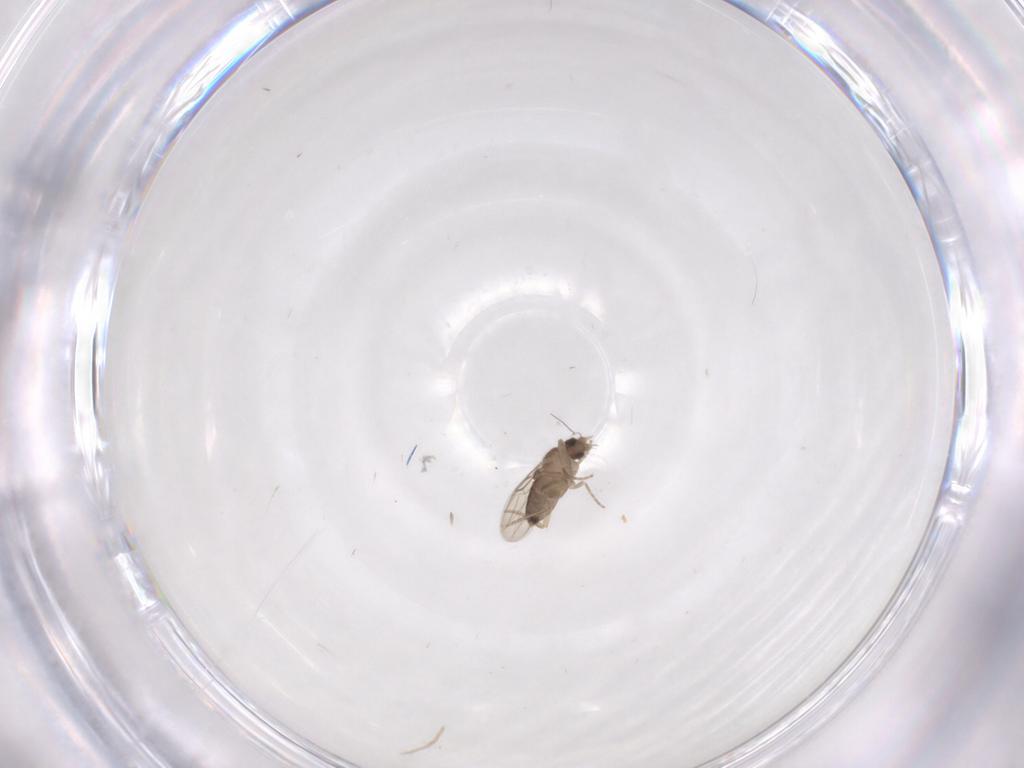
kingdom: Animalia
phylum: Arthropoda
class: Insecta
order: Diptera
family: Phoridae
